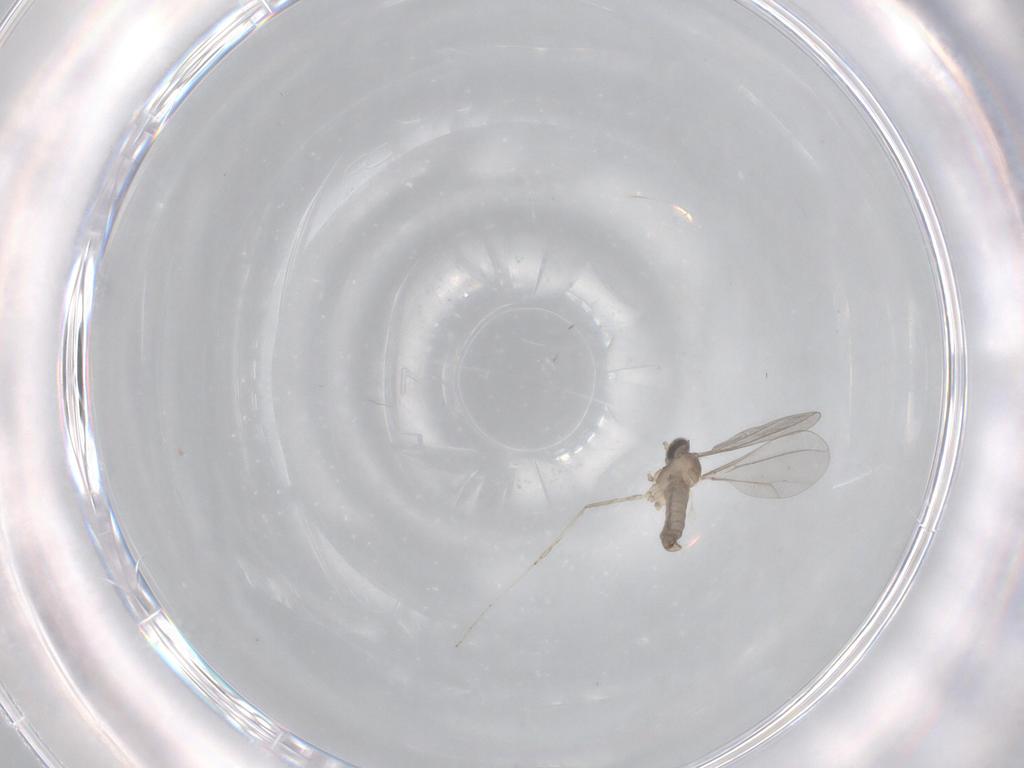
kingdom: Animalia
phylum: Arthropoda
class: Insecta
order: Diptera
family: Cecidomyiidae
